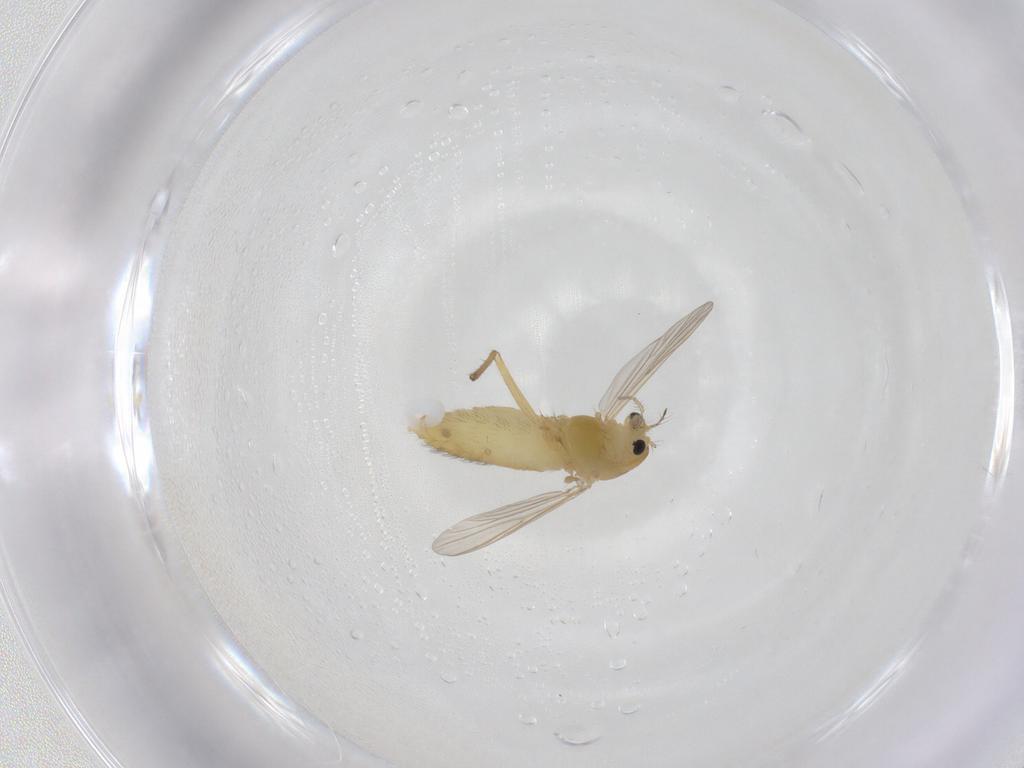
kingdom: Animalia
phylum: Arthropoda
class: Insecta
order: Diptera
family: Chironomidae
